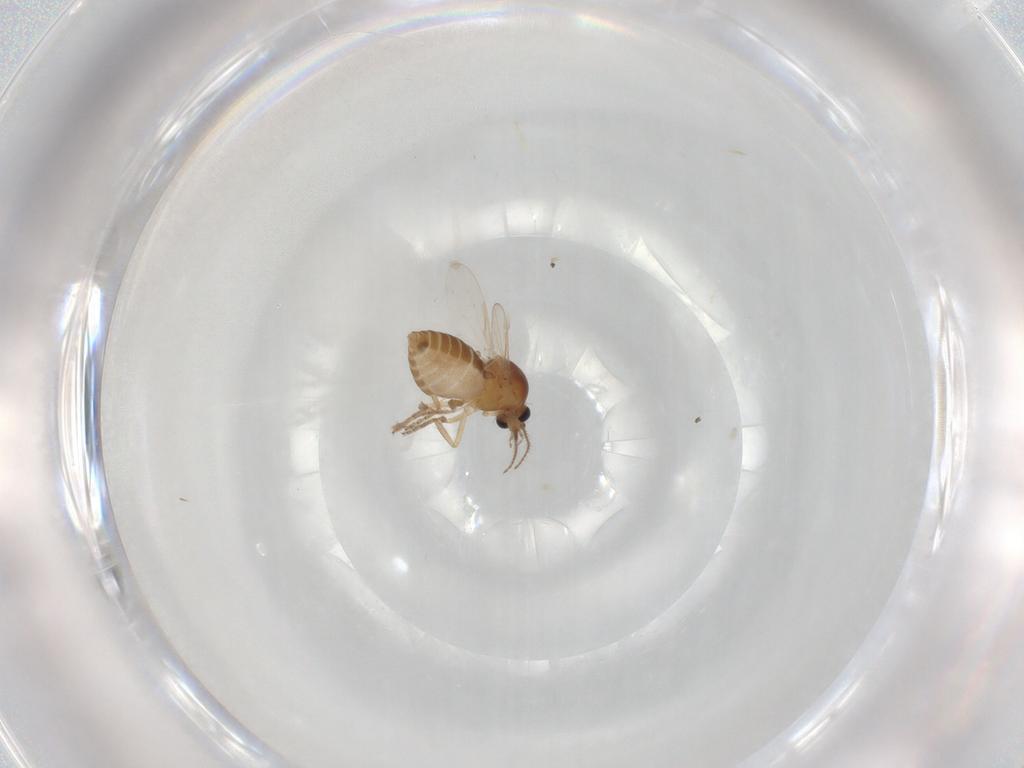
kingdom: Animalia
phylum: Arthropoda
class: Insecta
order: Diptera
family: Ceratopogonidae
